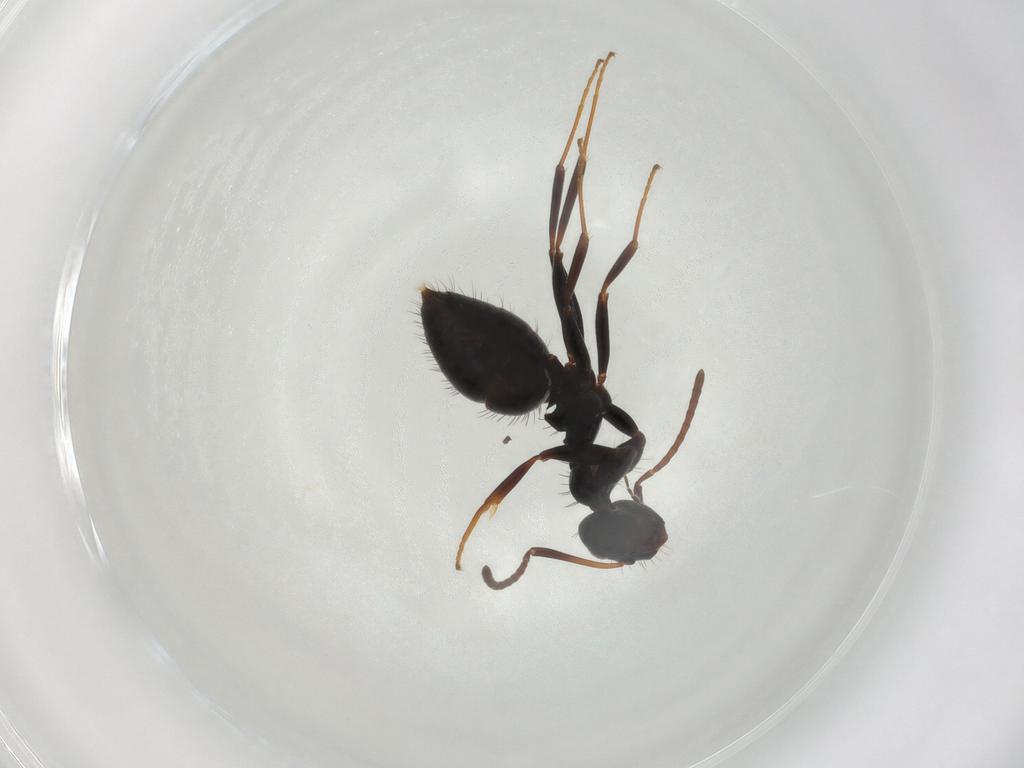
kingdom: Animalia
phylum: Arthropoda
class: Insecta
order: Hymenoptera
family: Formicidae
